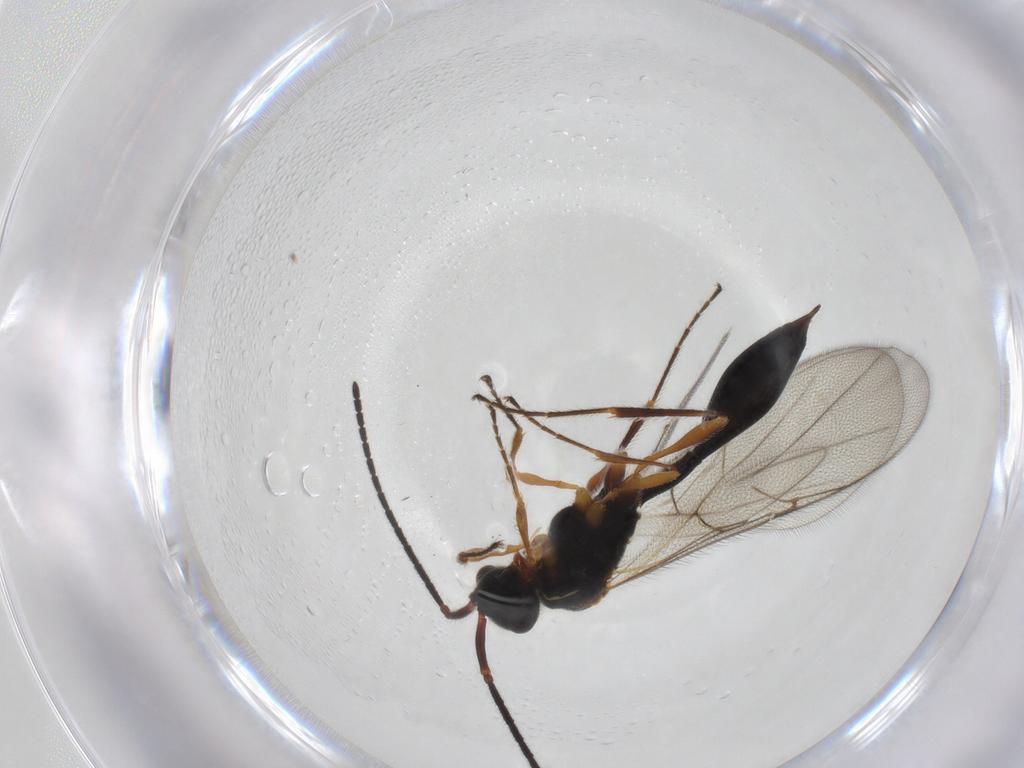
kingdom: Animalia
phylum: Arthropoda
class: Insecta
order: Hymenoptera
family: Diapriidae
